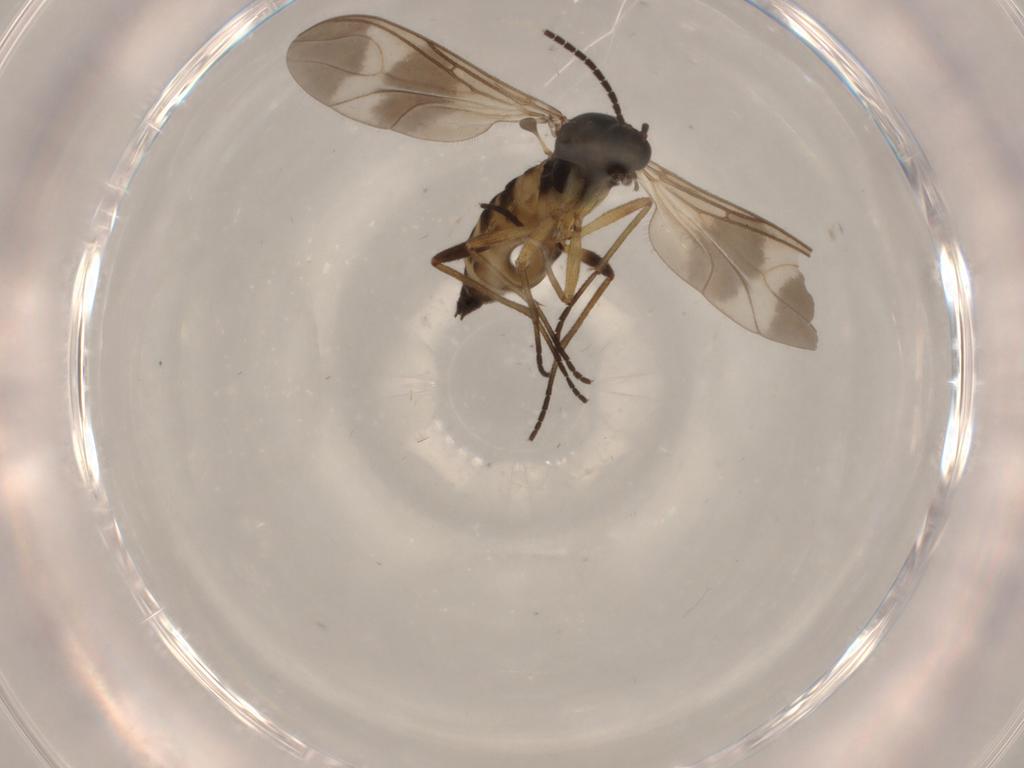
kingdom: Animalia
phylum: Arthropoda
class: Insecta
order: Diptera
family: Sciaridae
